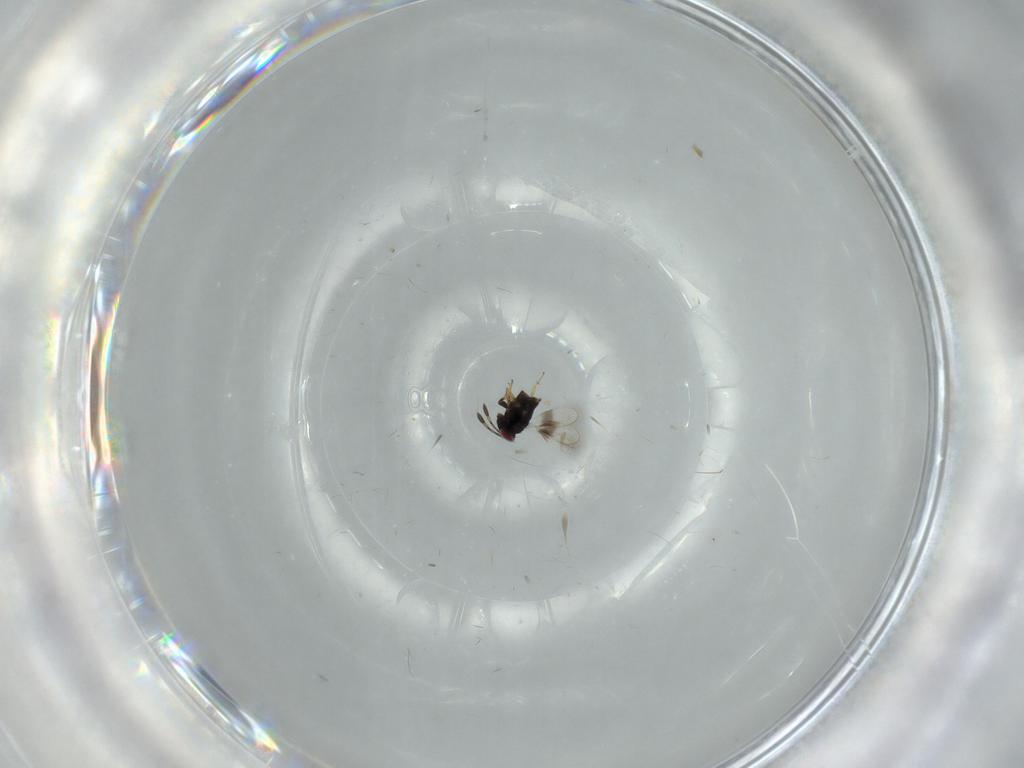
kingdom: Animalia
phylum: Arthropoda
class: Insecta
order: Hymenoptera
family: Azotidae
